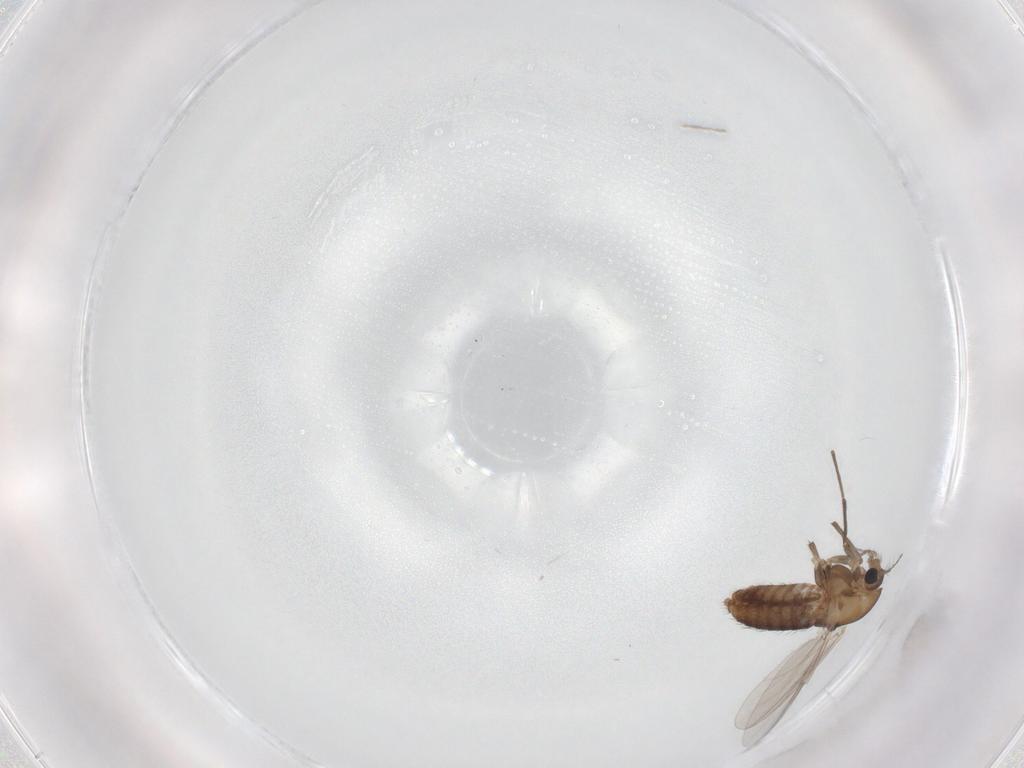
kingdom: Animalia
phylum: Arthropoda
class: Insecta
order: Diptera
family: Chironomidae
